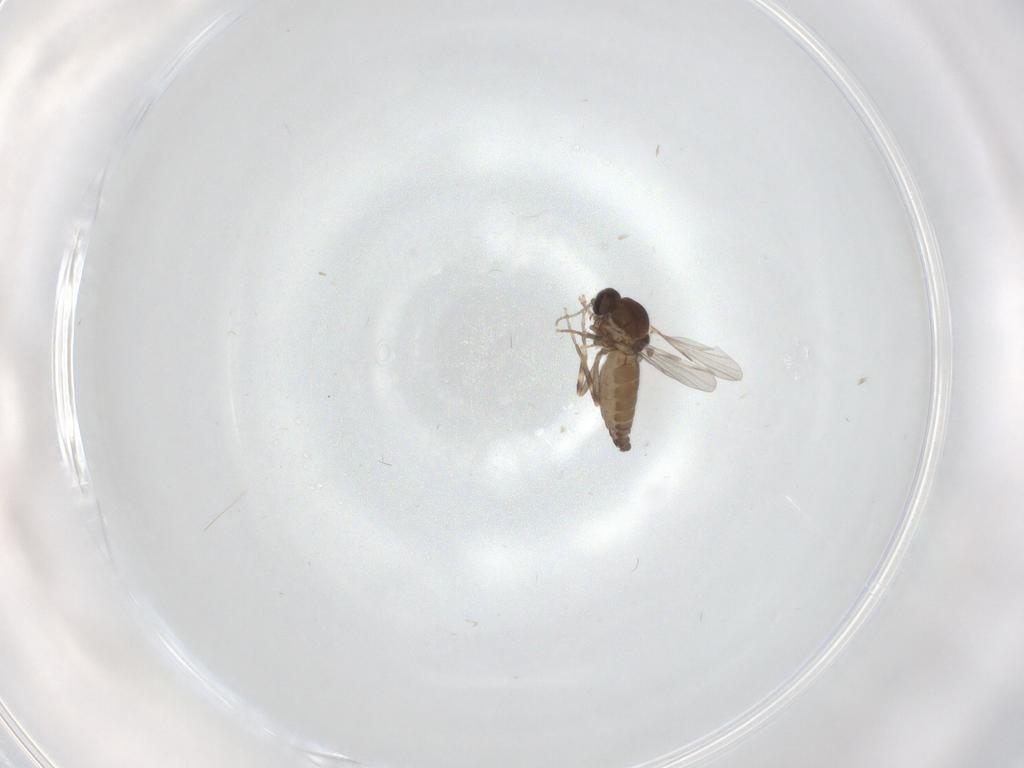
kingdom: Animalia
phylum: Arthropoda
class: Insecta
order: Diptera
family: Ceratopogonidae
